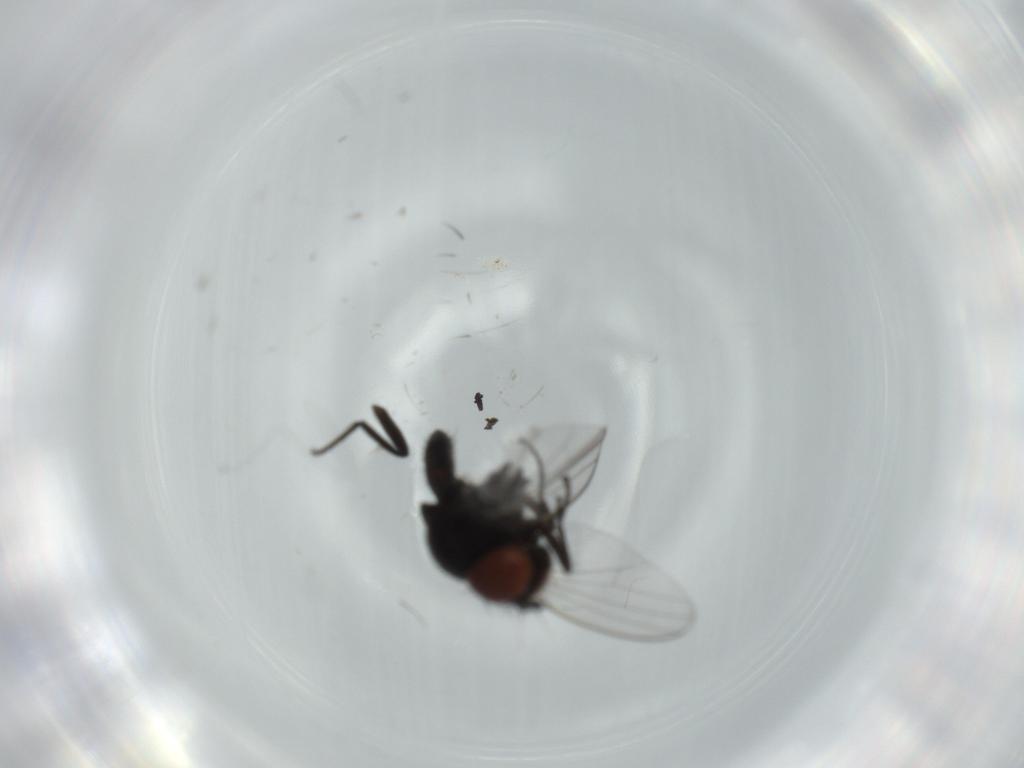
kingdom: Animalia
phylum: Arthropoda
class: Insecta
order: Diptera
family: Milichiidae
